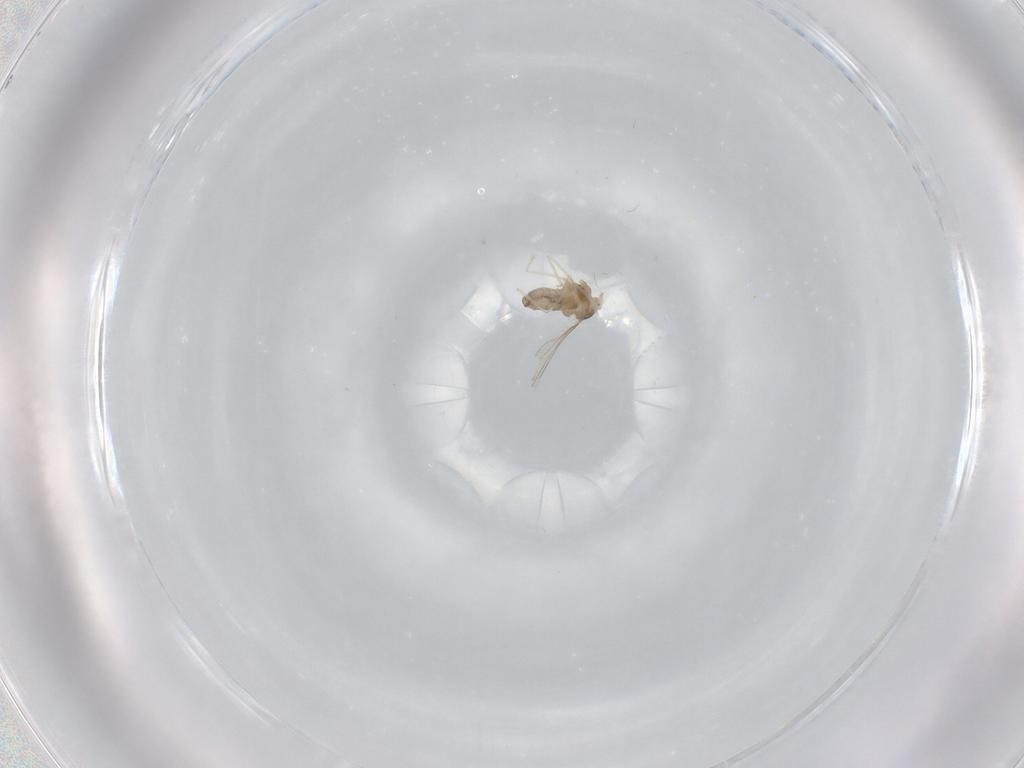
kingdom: Animalia
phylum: Arthropoda
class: Insecta
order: Diptera
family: Cecidomyiidae
